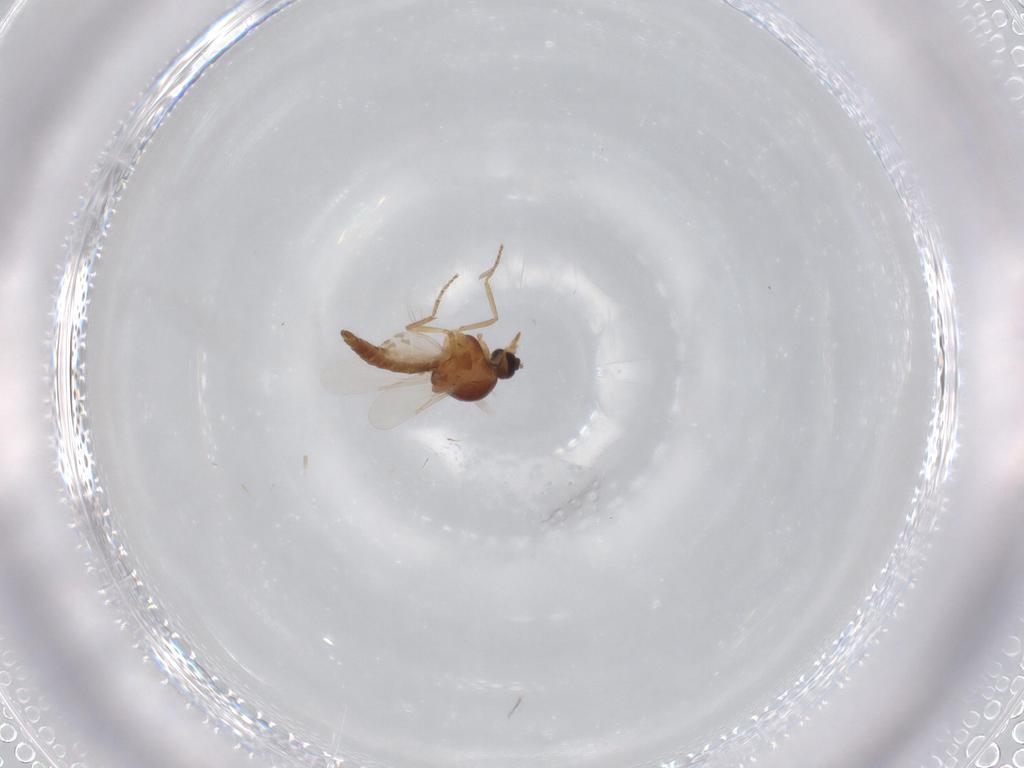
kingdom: Animalia
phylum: Arthropoda
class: Insecta
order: Diptera
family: Ceratopogonidae
